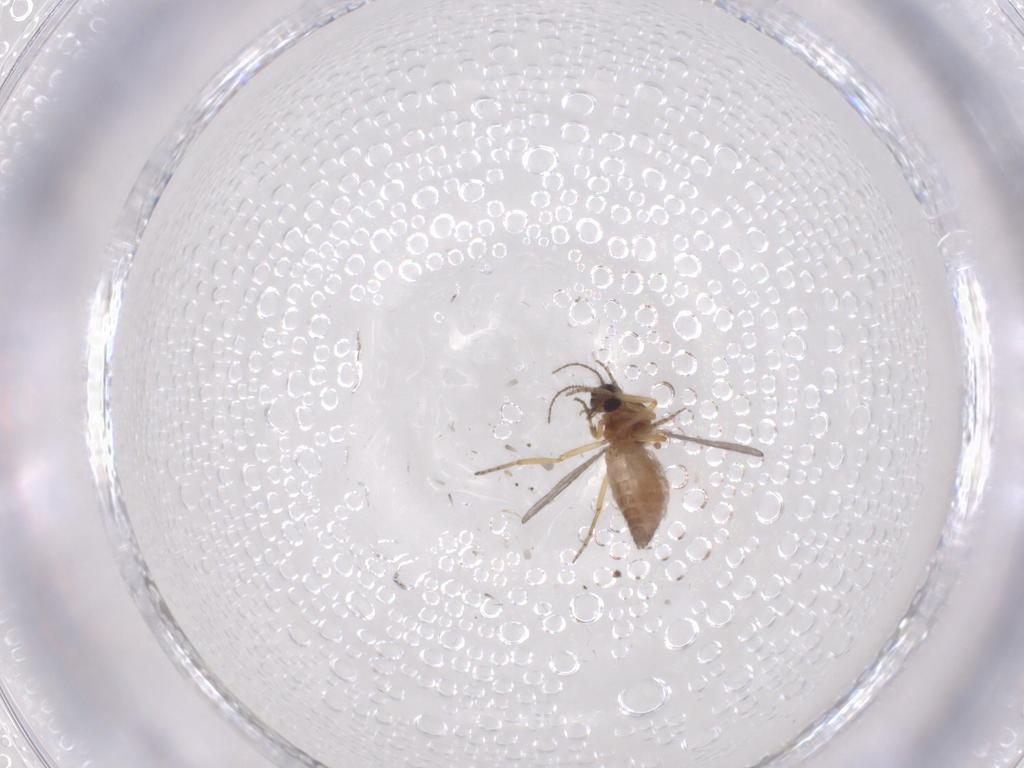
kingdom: Animalia
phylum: Arthropoda
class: Insecta
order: Diptera
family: Ceratopogonidae
